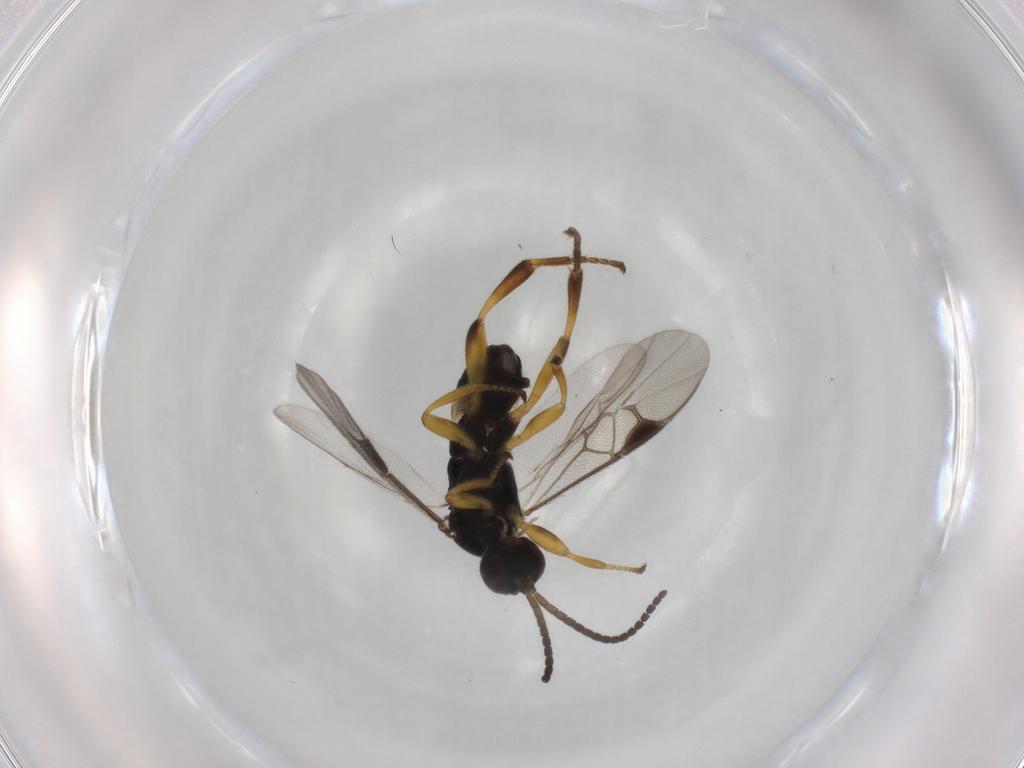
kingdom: Animalia
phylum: Arthropoda
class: Insecta
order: Hymenoptera
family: Braconidae
